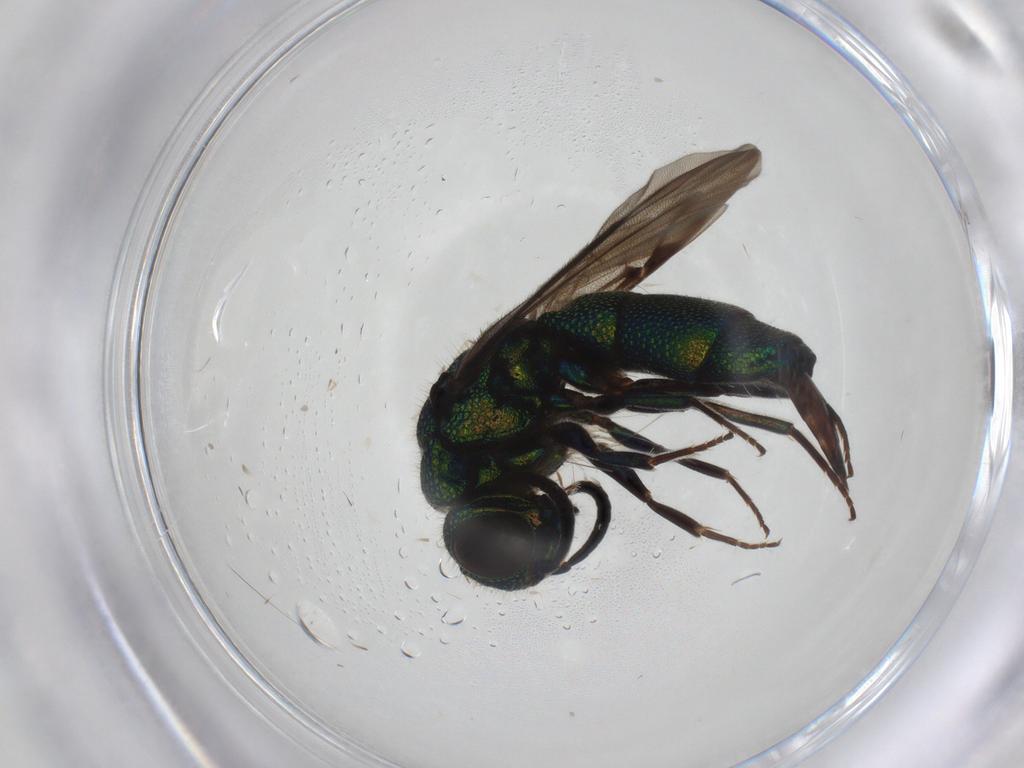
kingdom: Animalia
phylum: Arthropoda
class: Insecta
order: Hymenoptera
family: Chrysididae
